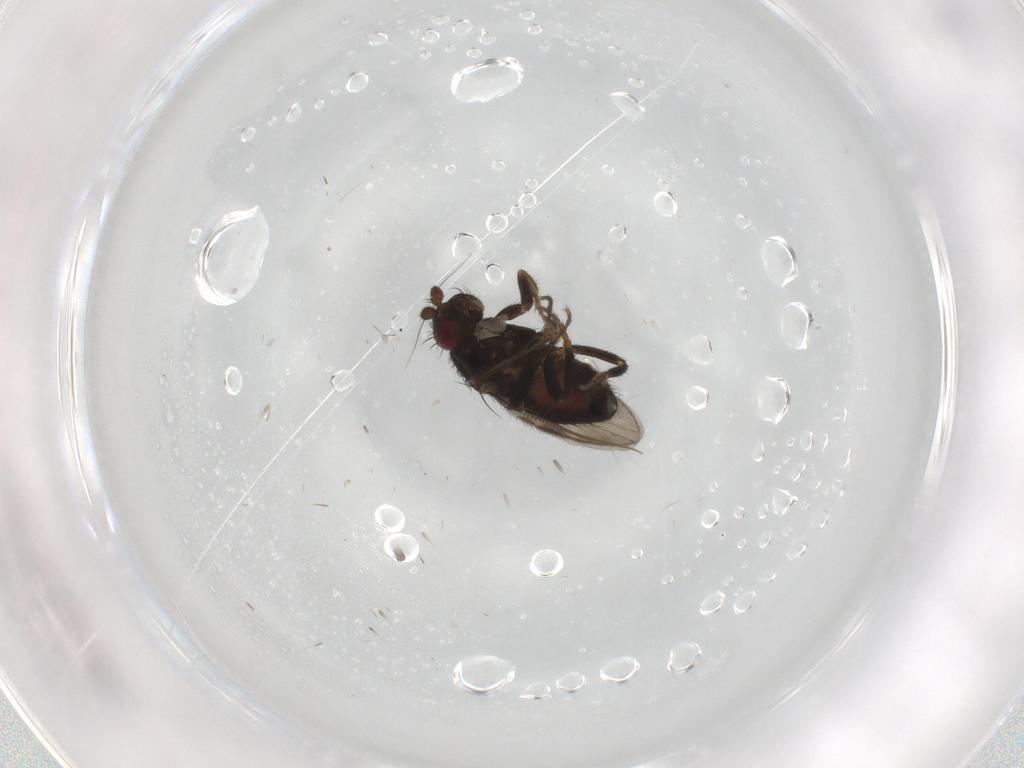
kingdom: Animalia
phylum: Arthropoda
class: Insecta
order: Diptera
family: Chironomidae
